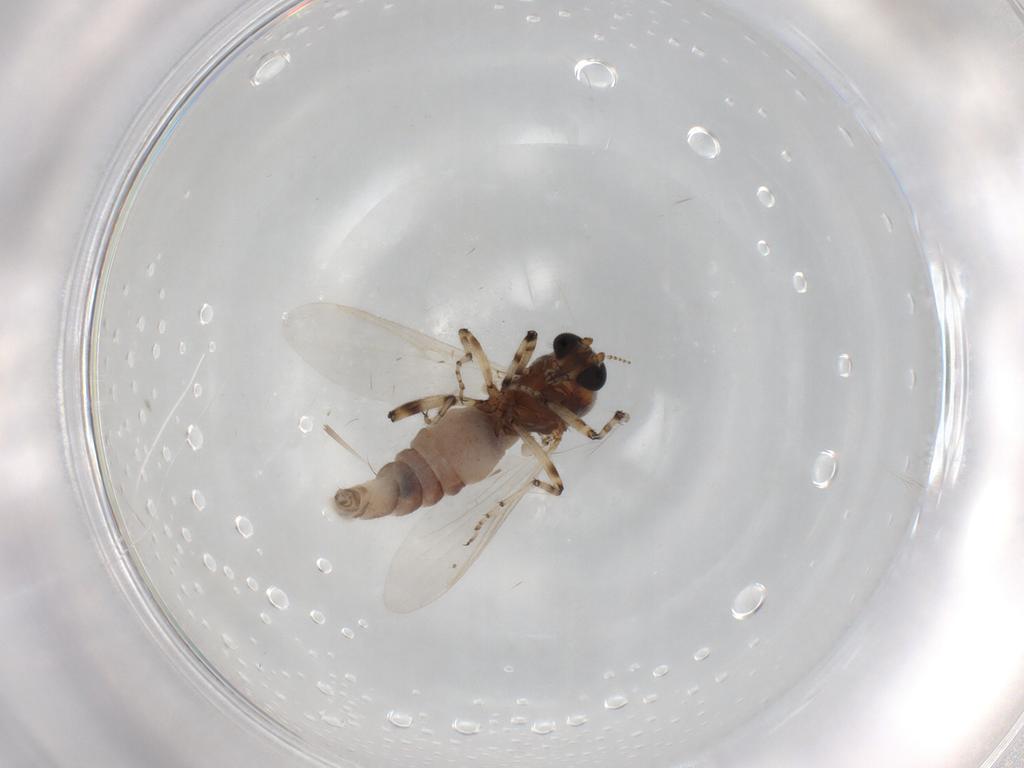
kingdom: Animalia
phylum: Arthropoda
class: Insecta
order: Diptera
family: Ceratopogonidae
